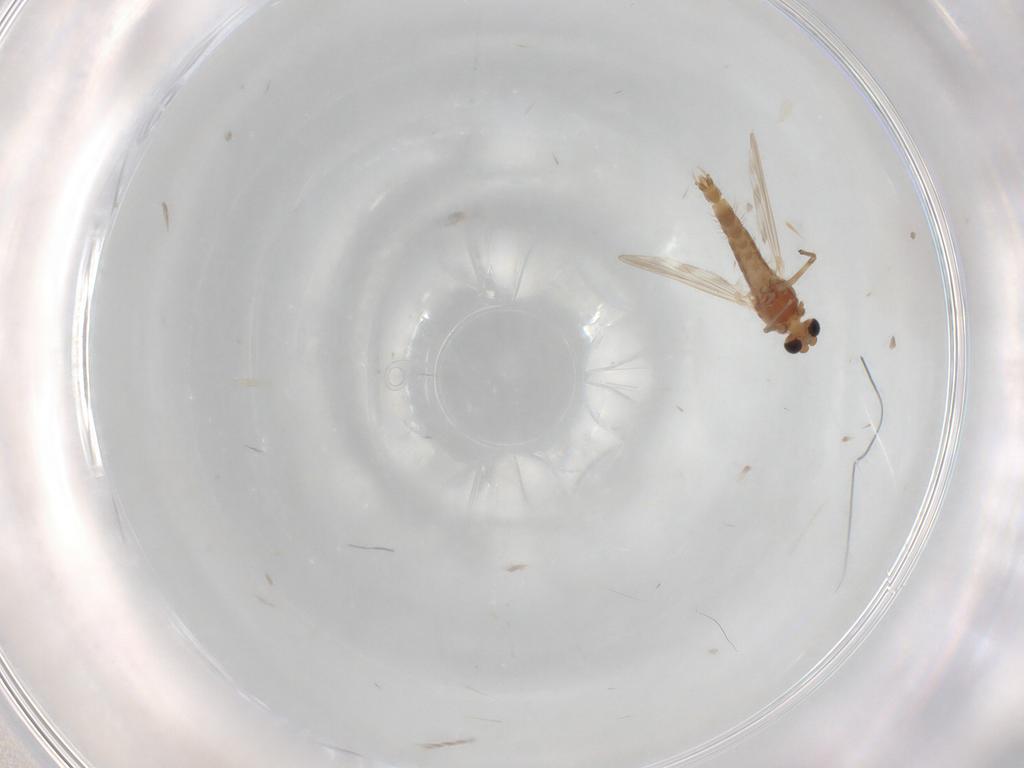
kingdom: Animalia
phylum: Arthropoda
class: Insecta
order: Diptera
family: Chironomidae
